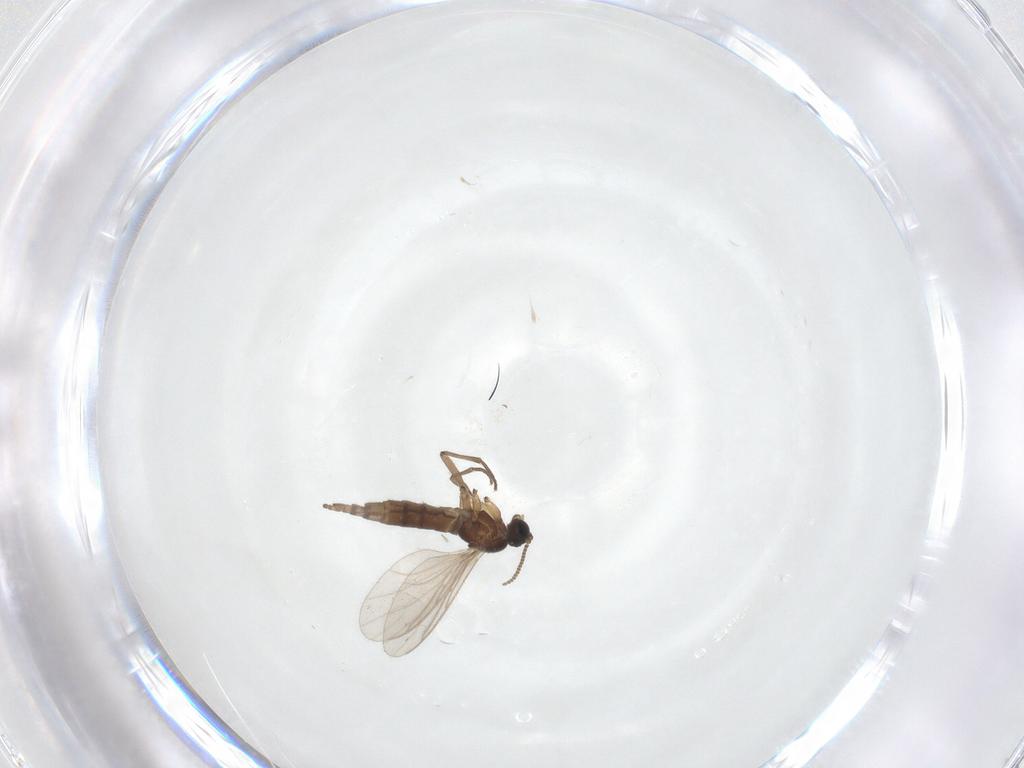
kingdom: Animalia
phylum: Arthropoda
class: Insecta
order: Diptera
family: Sciaridae
